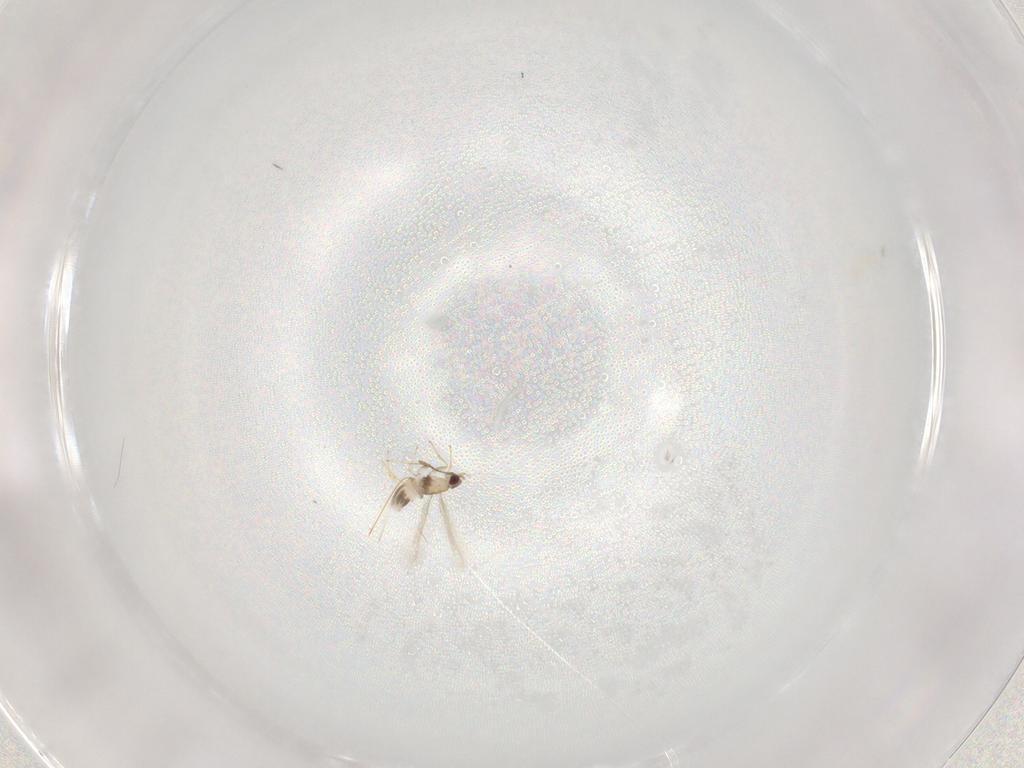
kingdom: Animalia
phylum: Arthropoda
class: Insecta
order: Hymenoptera
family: Mymaridae
